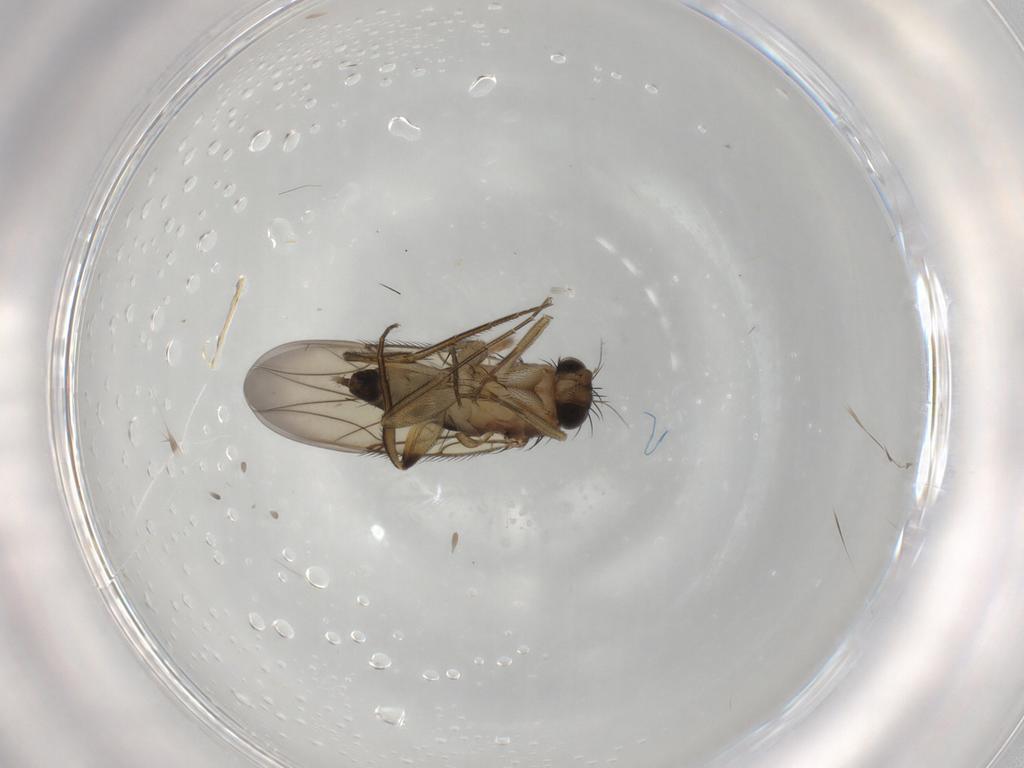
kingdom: Animalia
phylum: Arthropoda
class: Insecta
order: Diptera
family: Phoridae
